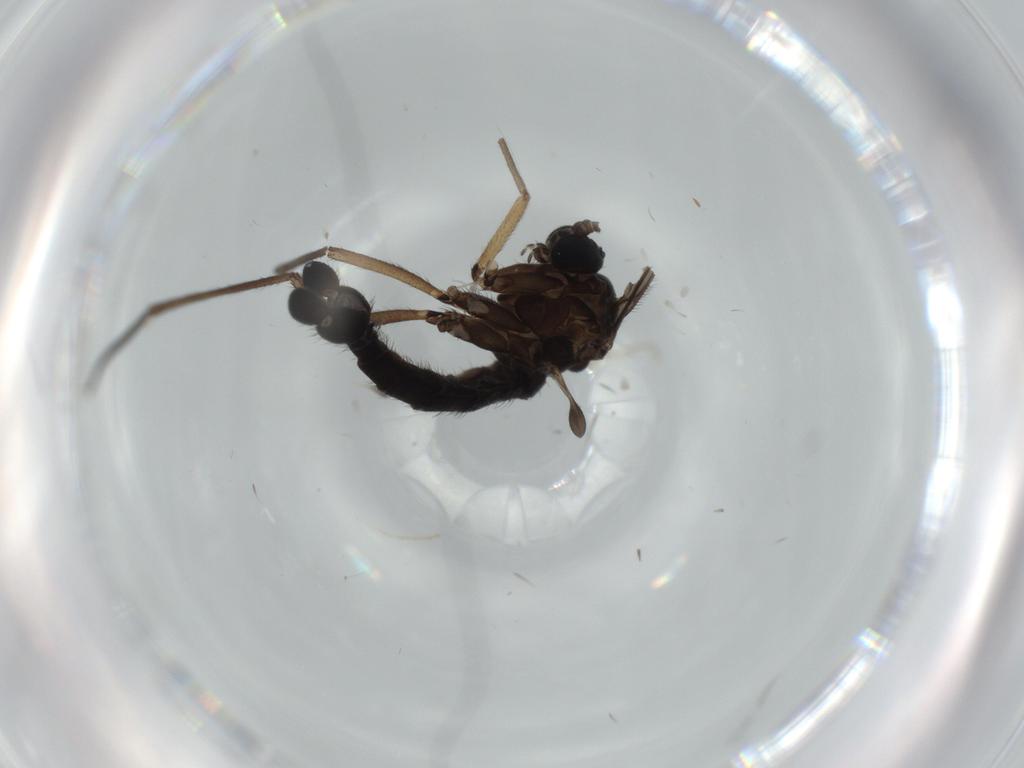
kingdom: Animalia
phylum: Arthropoda
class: Insecta
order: Diptera
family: Sciaridae
